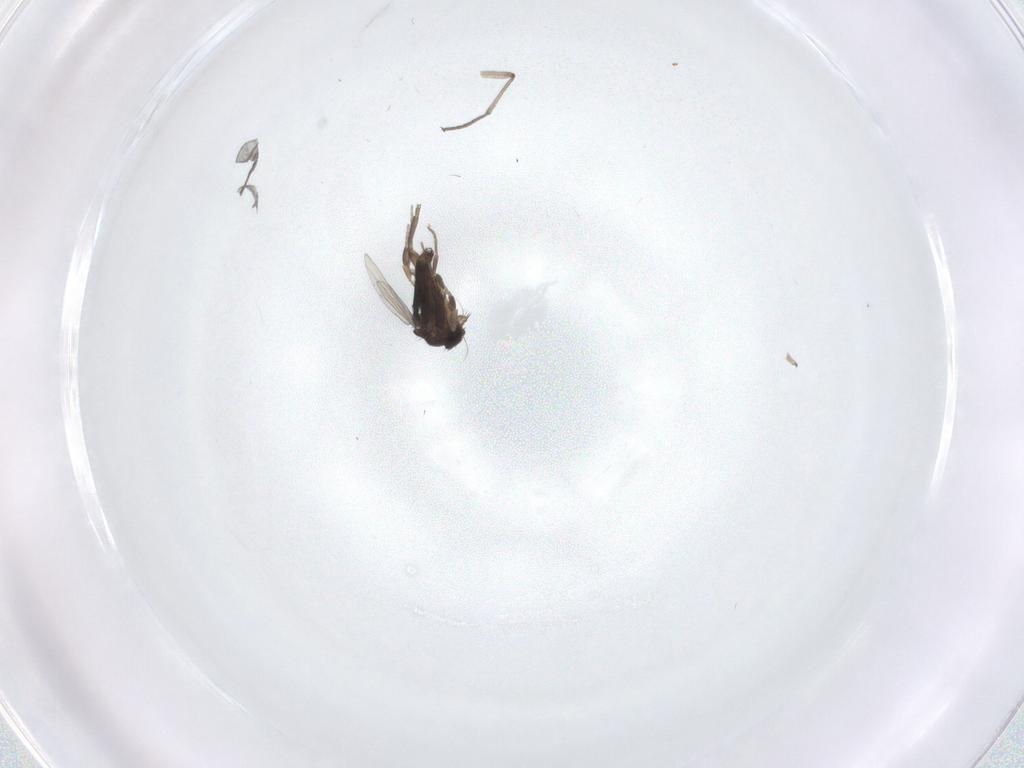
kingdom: Animalia
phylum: Arthropoda
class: Insecta
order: Diptera
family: Phoridae
